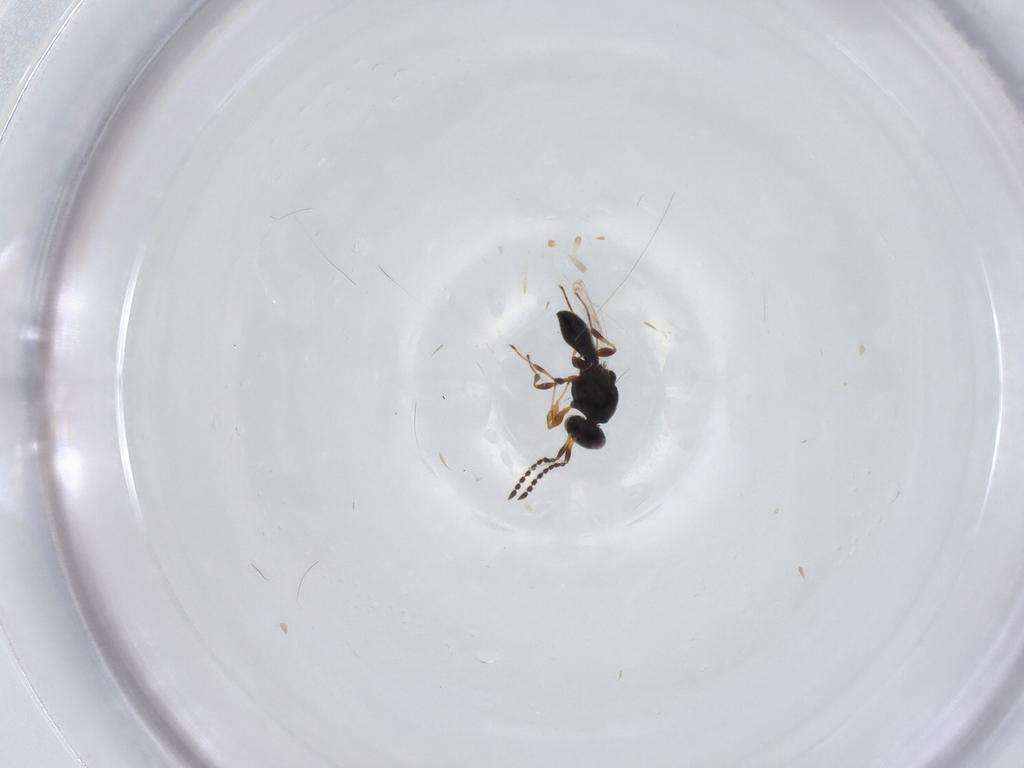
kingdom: Animalia
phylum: Arthropoda
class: Insecta
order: Hymenoptera
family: Platygastridae
